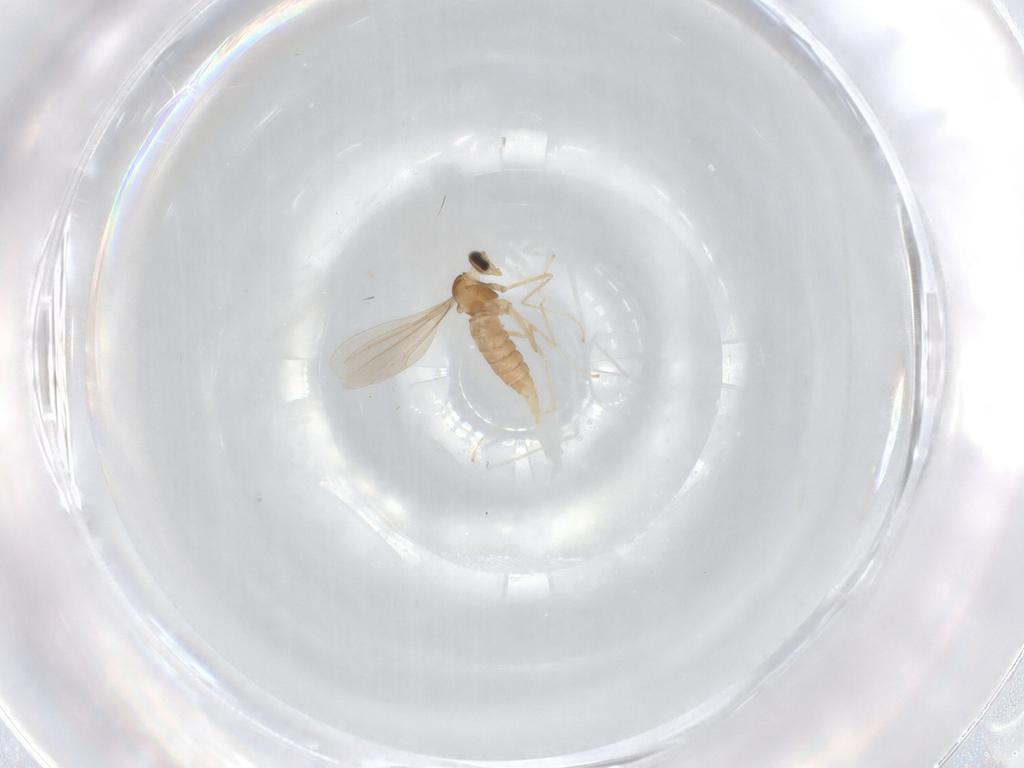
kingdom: Animalia
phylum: Arthropoda
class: Insecta
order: Diptera
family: Cecidomyiidae
